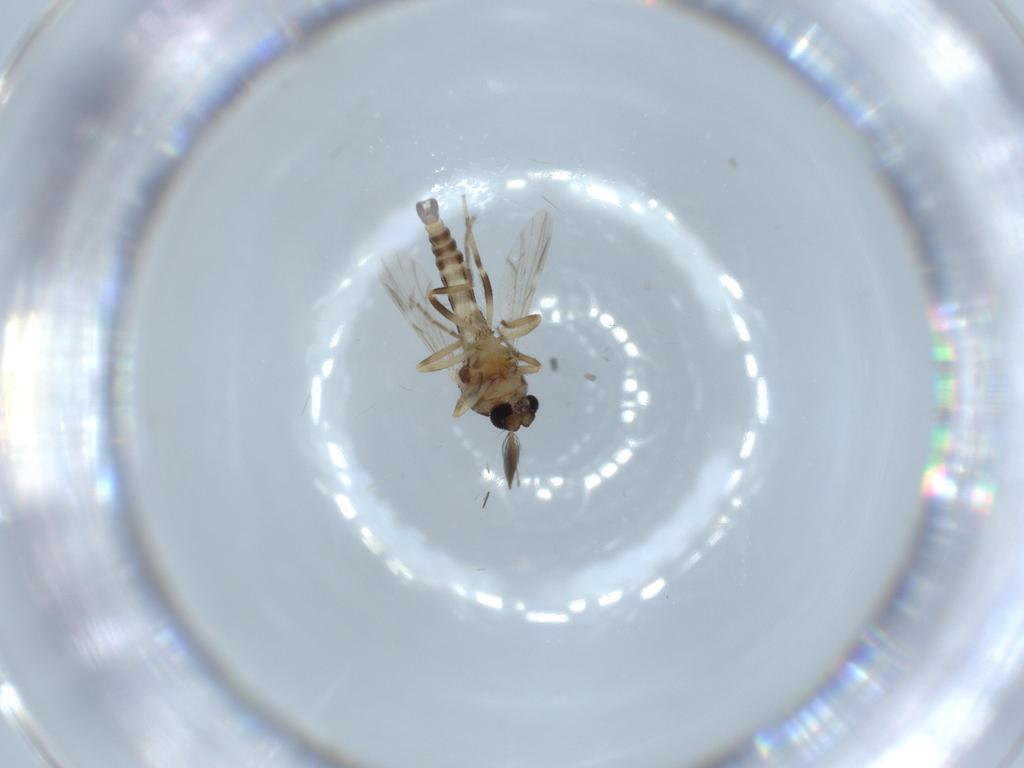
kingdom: Animalia
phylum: Arthropoda
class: Insecta
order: Diptera
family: Ceratopogonidae
